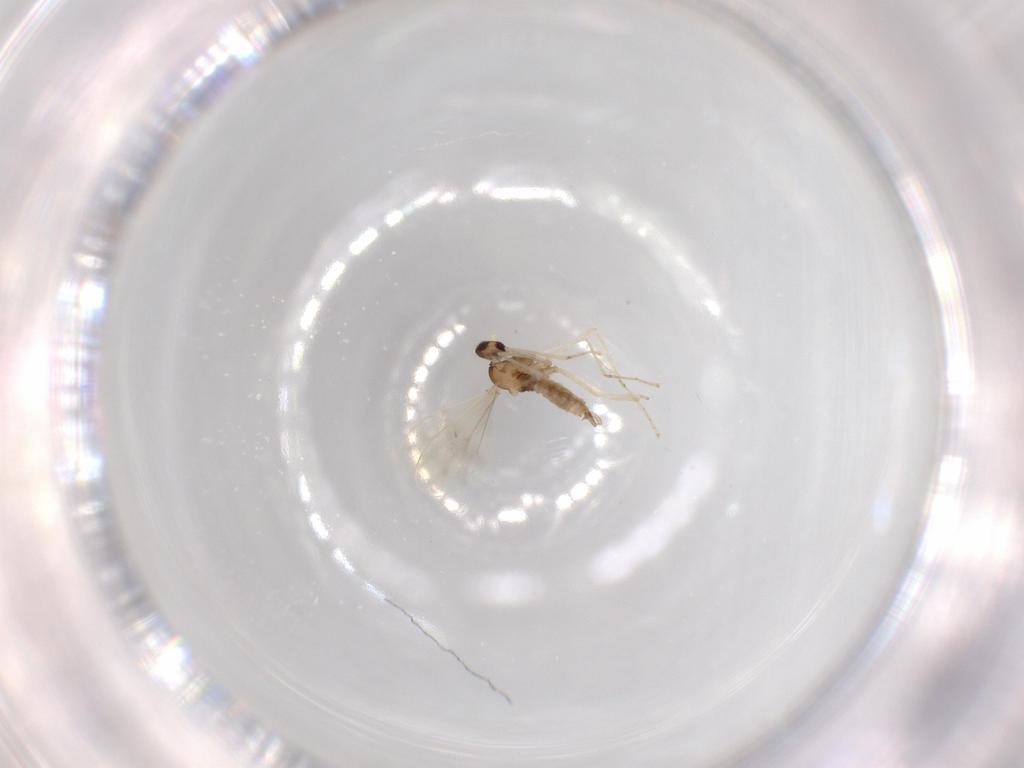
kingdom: Animalia
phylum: Arthropoda
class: Insecta
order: Diptera
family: Cecidomyiidae
